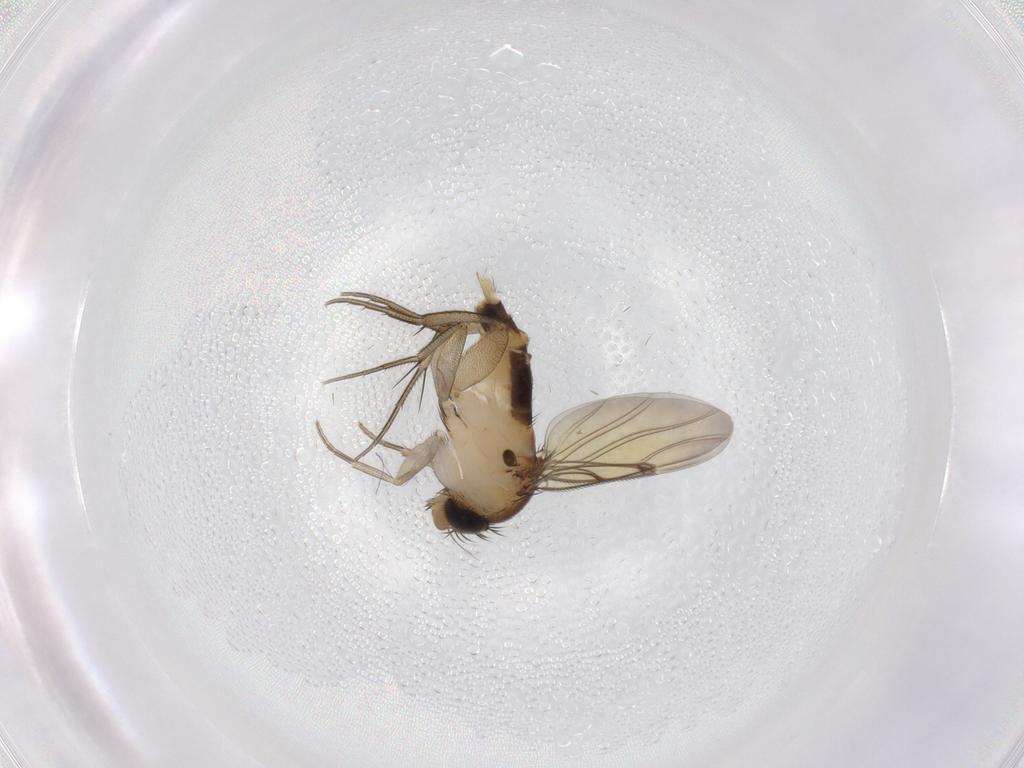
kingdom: Animalia
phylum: Arthropoda
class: Insecta
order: Diptera
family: Phoridae
